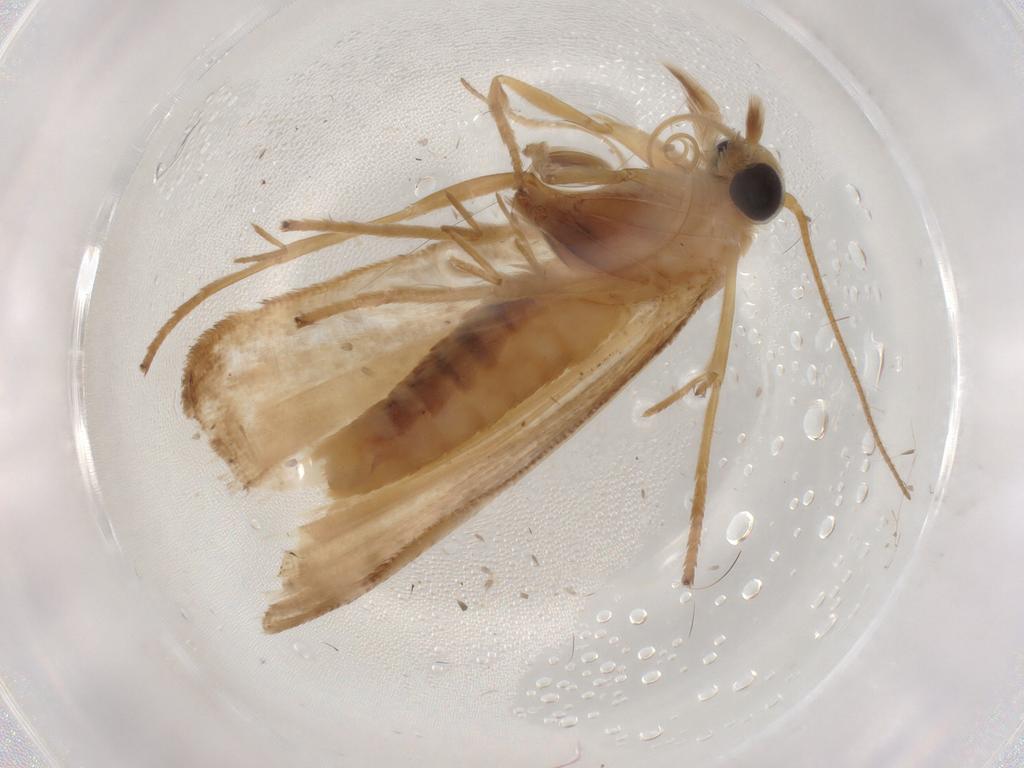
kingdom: Animalia
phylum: Arthropoda
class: Insecta
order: Lepidoptera
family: Pyralidae
